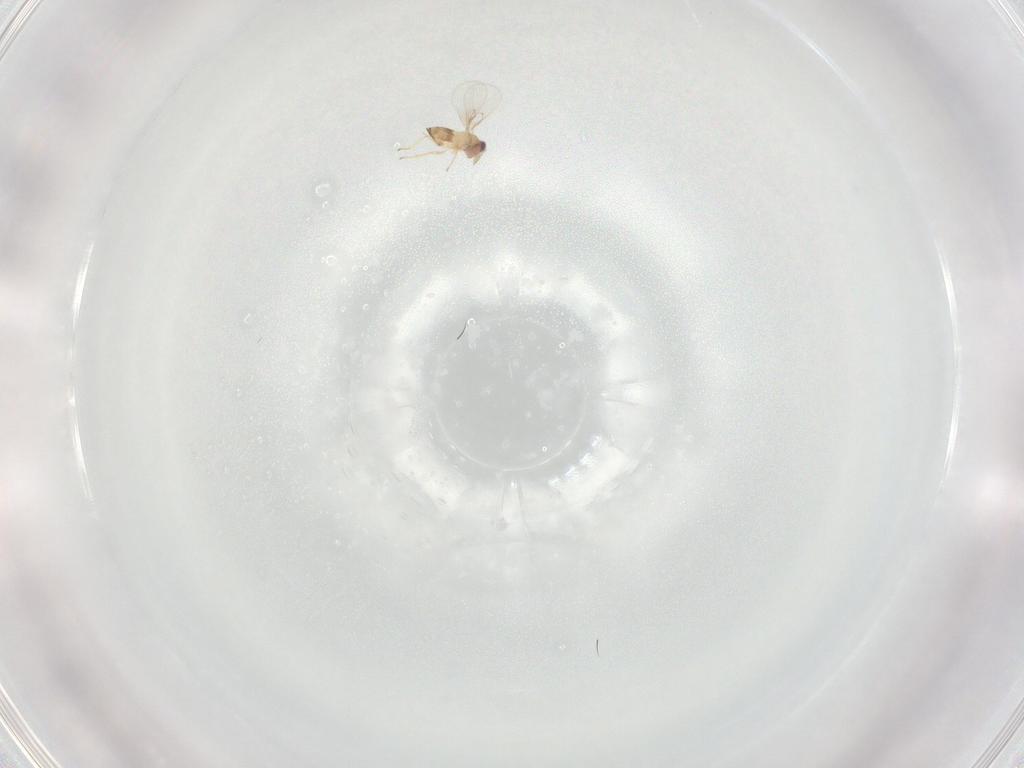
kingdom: Animalia
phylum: Arthropoda
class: Insecta
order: Hymenoptera
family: Trichogrammatidae
